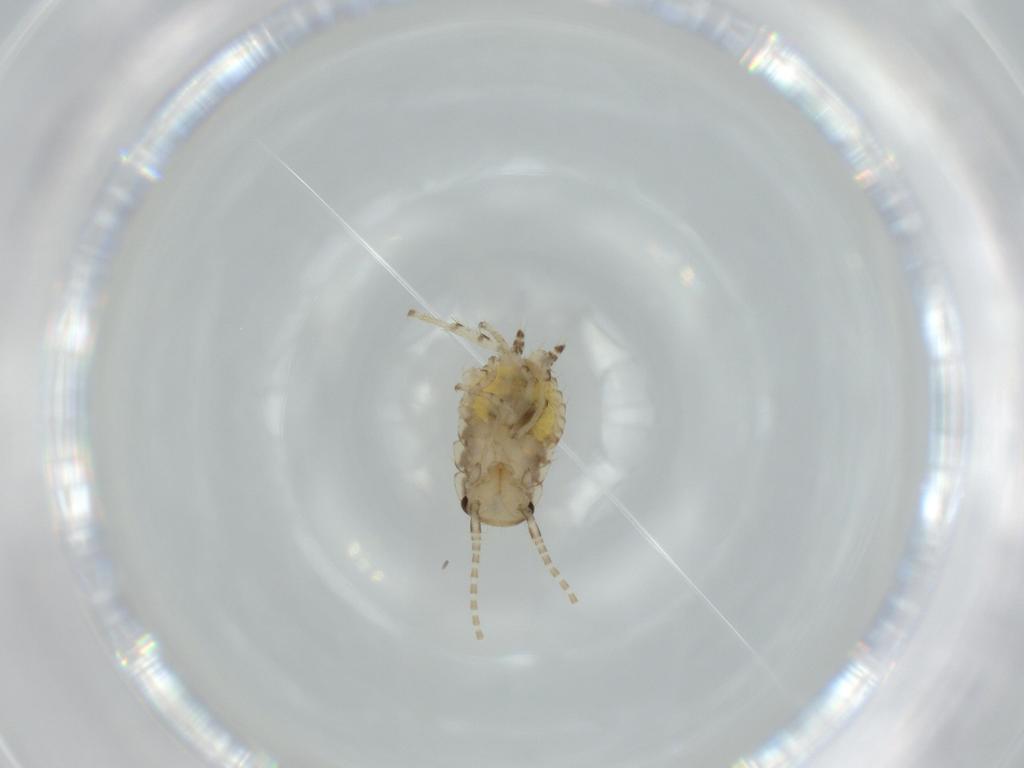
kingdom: Animalia
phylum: Arthropoda
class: Insecta
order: Blattodea
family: Ectobiidae
